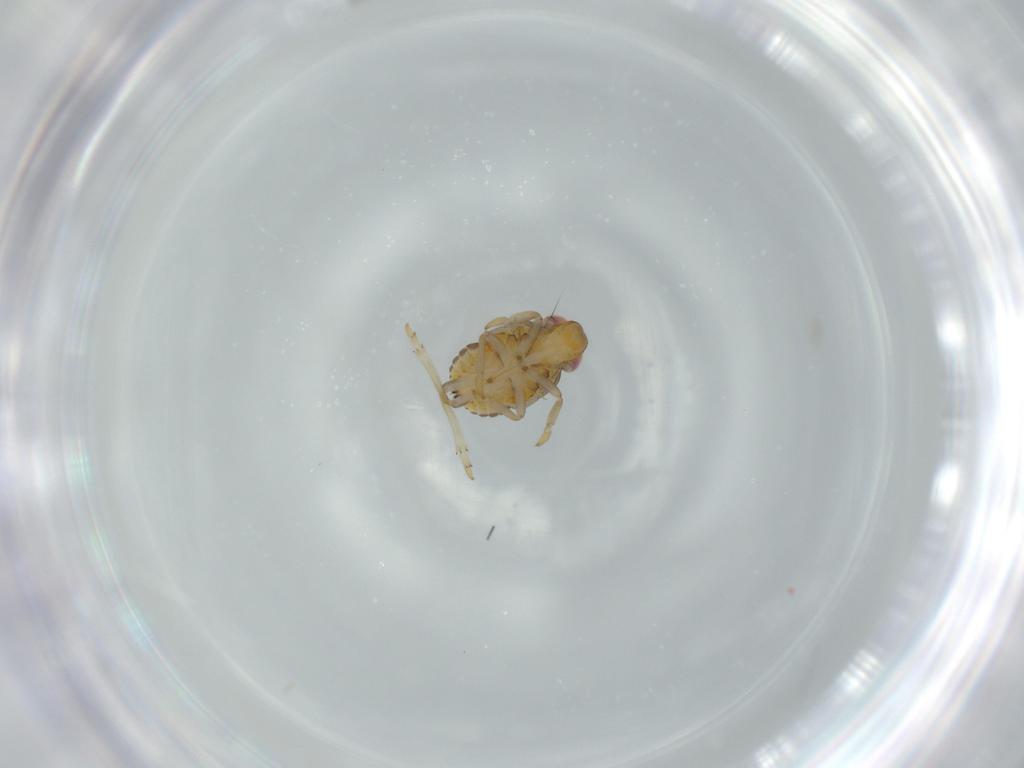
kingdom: Animalia
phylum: Arthropoda
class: Insecta
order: Hemiptera
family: Issidae
